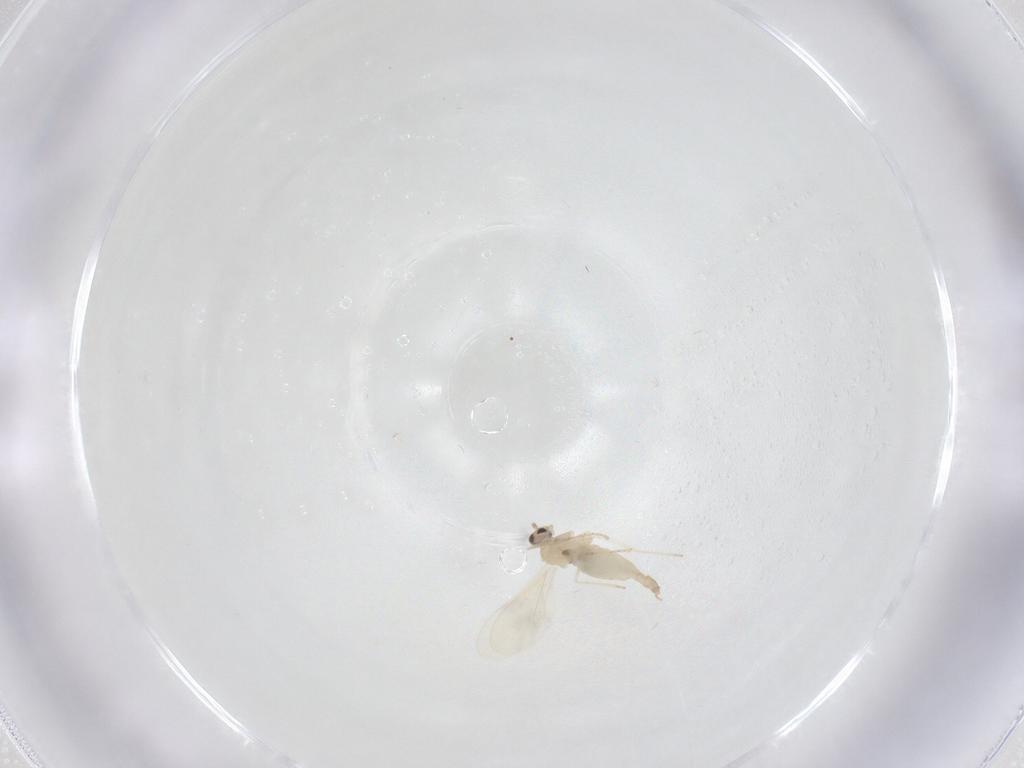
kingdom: Animalia
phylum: Arthropoda
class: Insecta
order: Diptera
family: Cecidomyiidae
